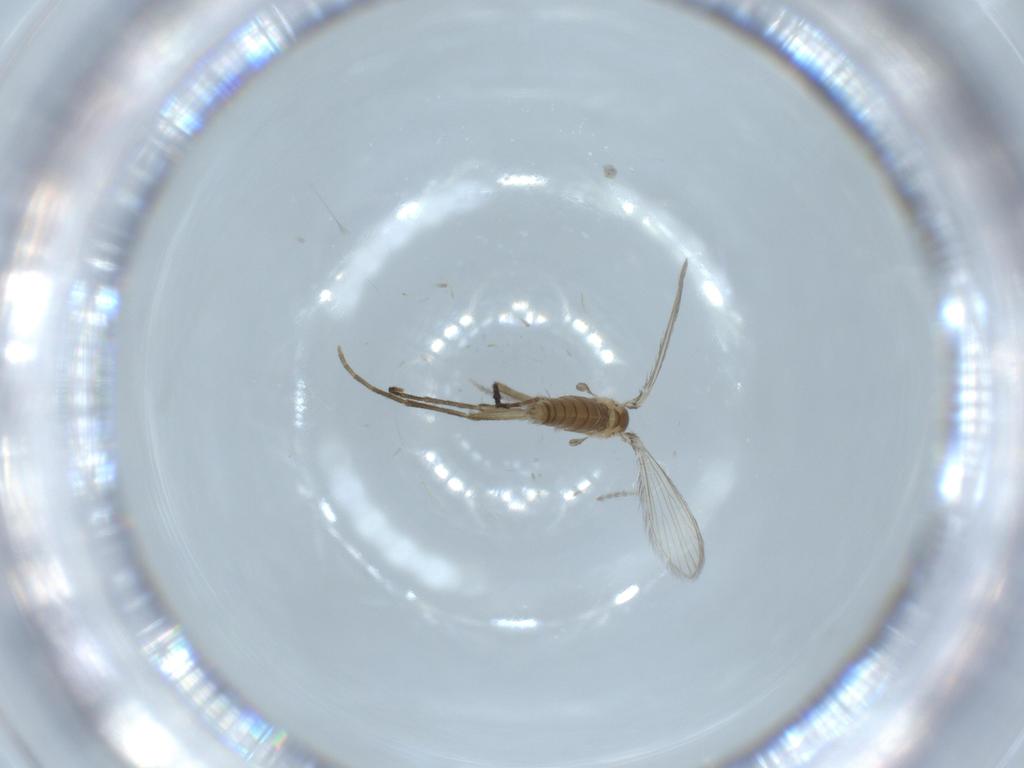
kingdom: Animalia
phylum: Arthropoda
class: Insecta
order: Diptera
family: Psychodidae
